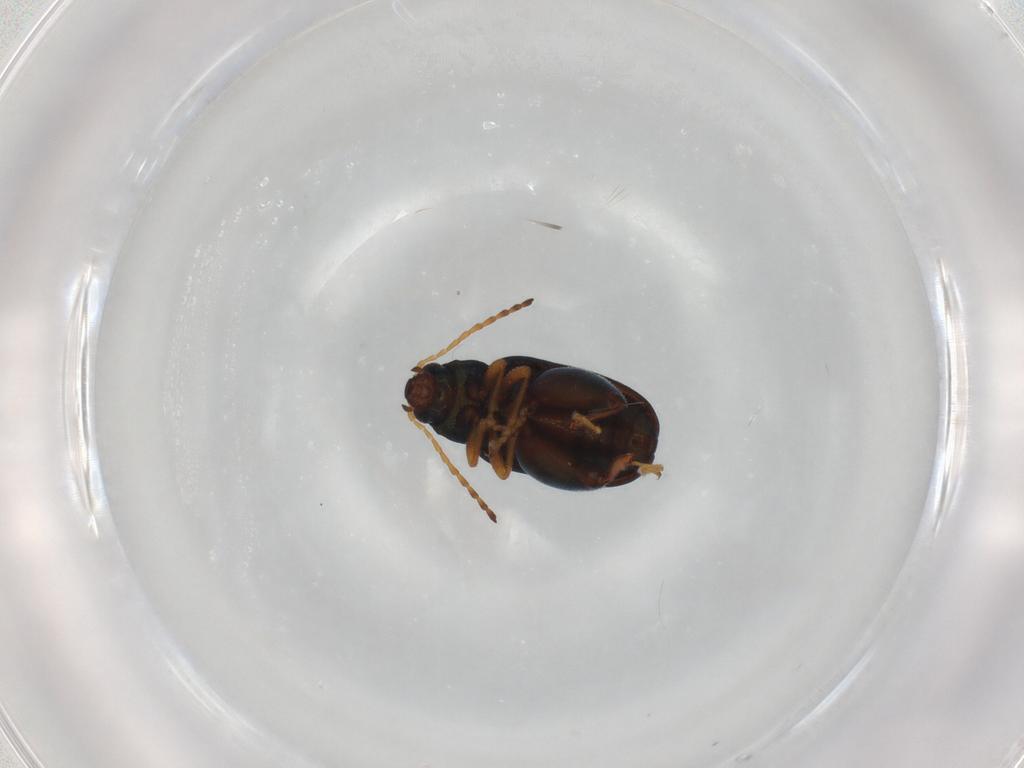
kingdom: Animalia
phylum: Arthropoda
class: Insecta
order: Coleoptera
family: Chrysomelidae
